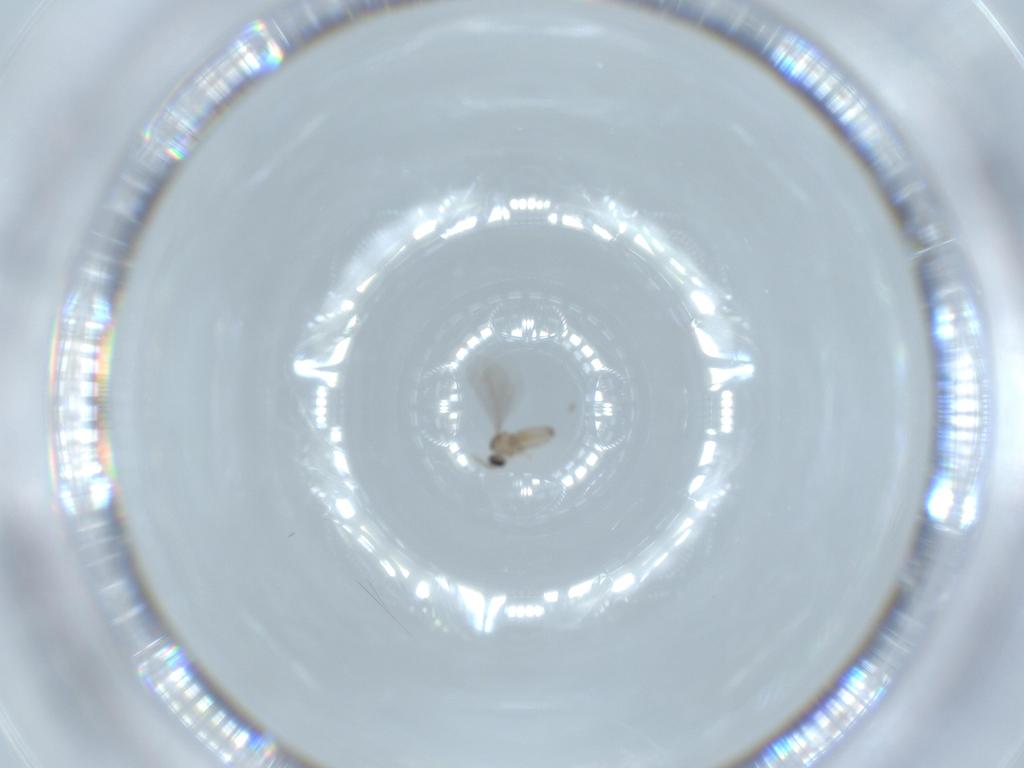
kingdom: Animalia
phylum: Arthropoda
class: Insecta
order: Diptera
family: Cecidomyiidae
